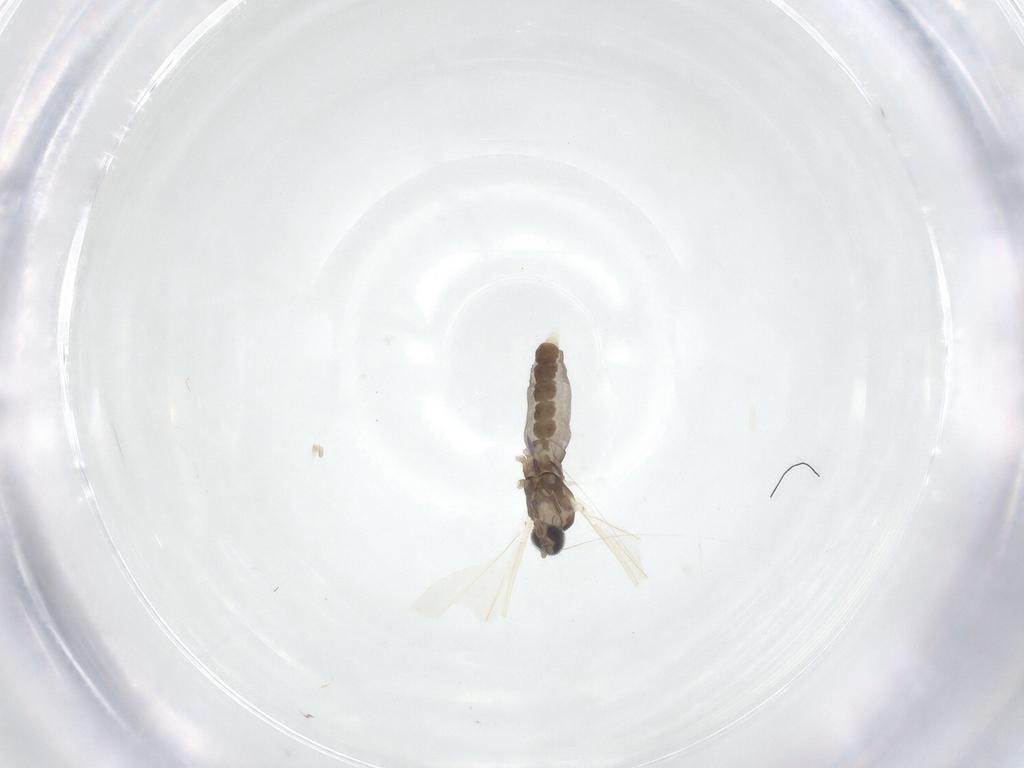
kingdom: Animalia
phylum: Arthropoda
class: Insecta
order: Diptera
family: Cecidomyiidae
